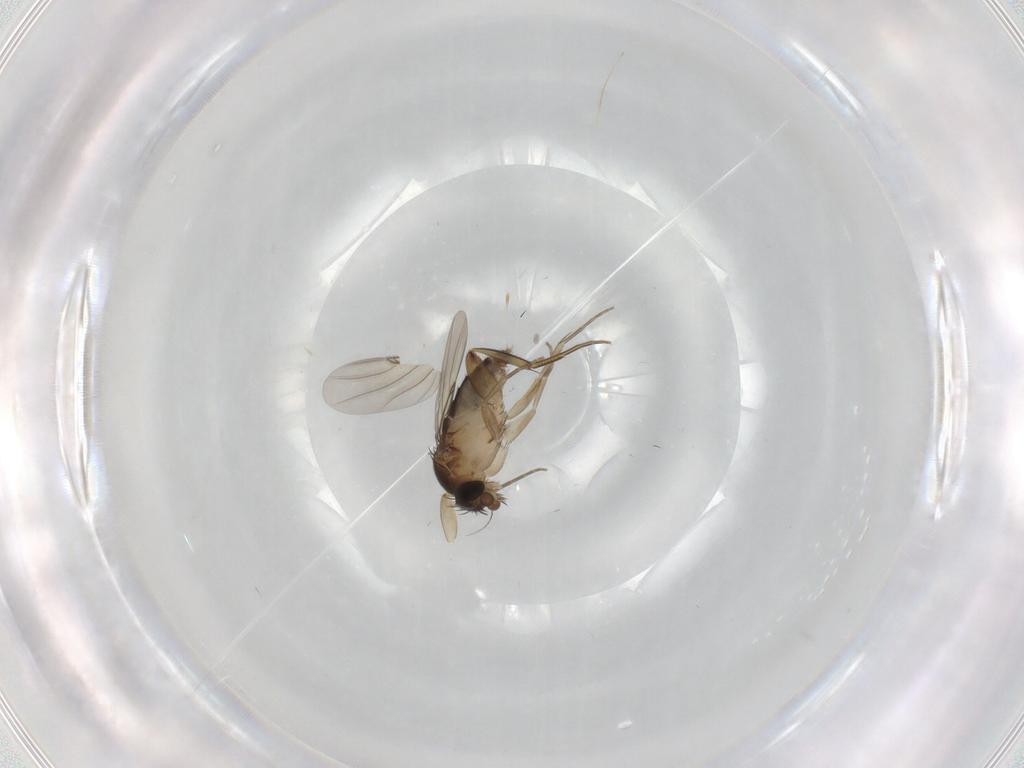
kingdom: Animalia
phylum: Arthropoda
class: Insecta
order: Diptera
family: Phoridae
